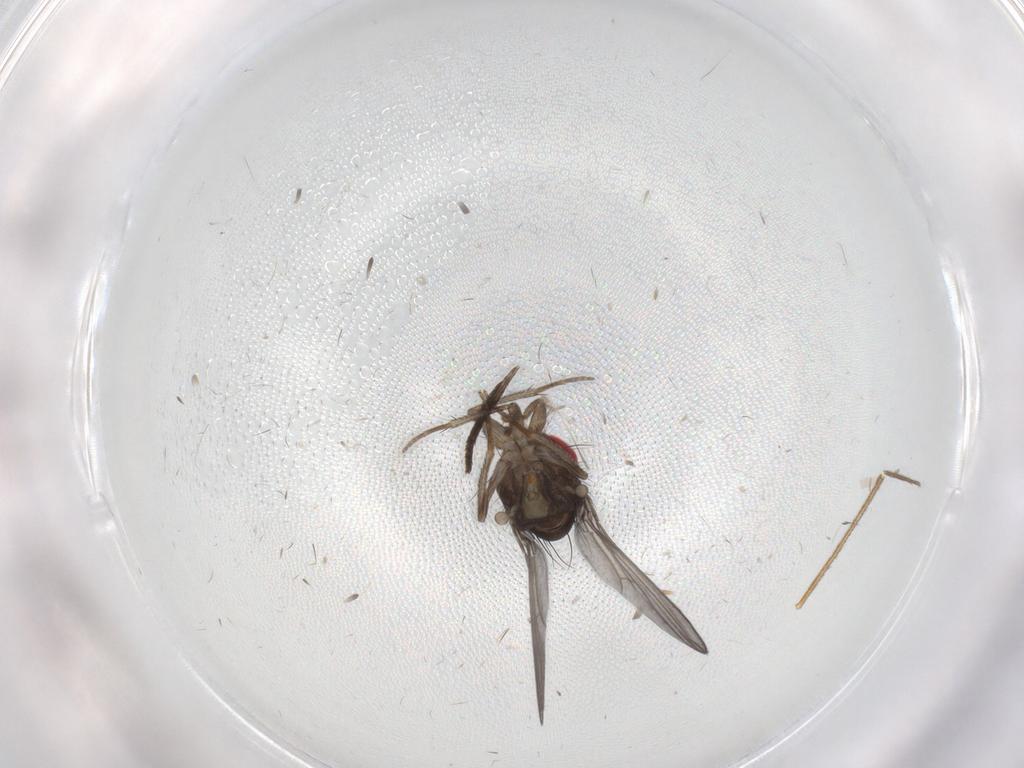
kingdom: Animalia
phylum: Arthropoda
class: Insecta
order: Diptera
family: Drosophilidae
